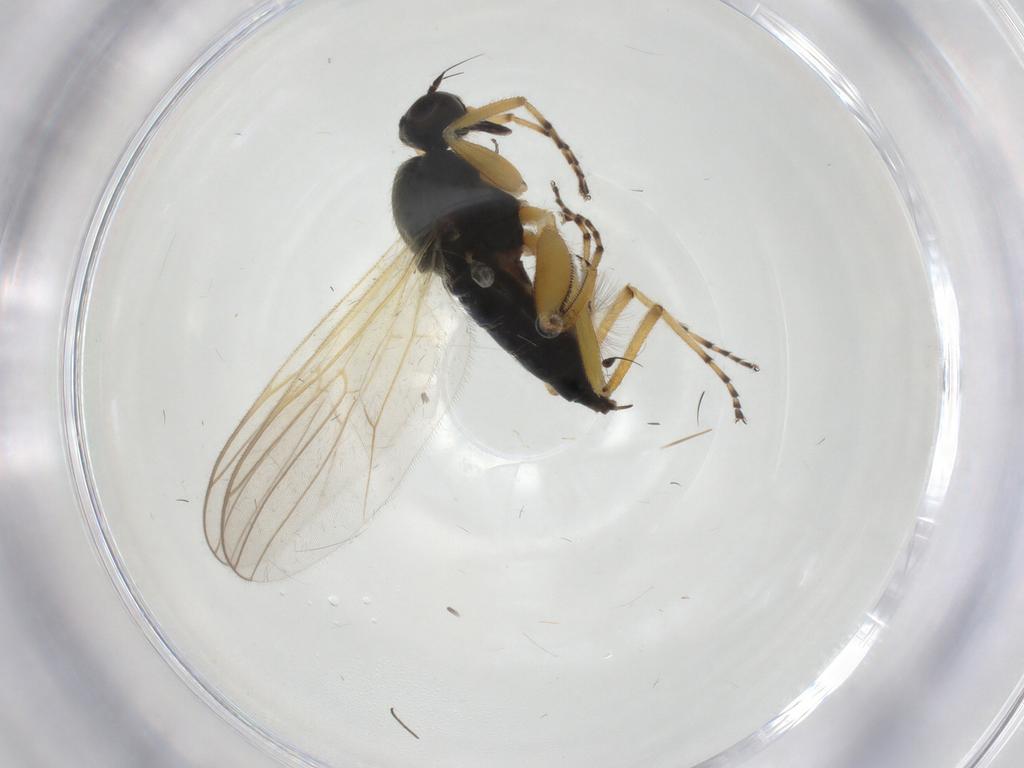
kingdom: Animalia
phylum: Arthropoda
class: Insecta
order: Diptera
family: Hybotidae
